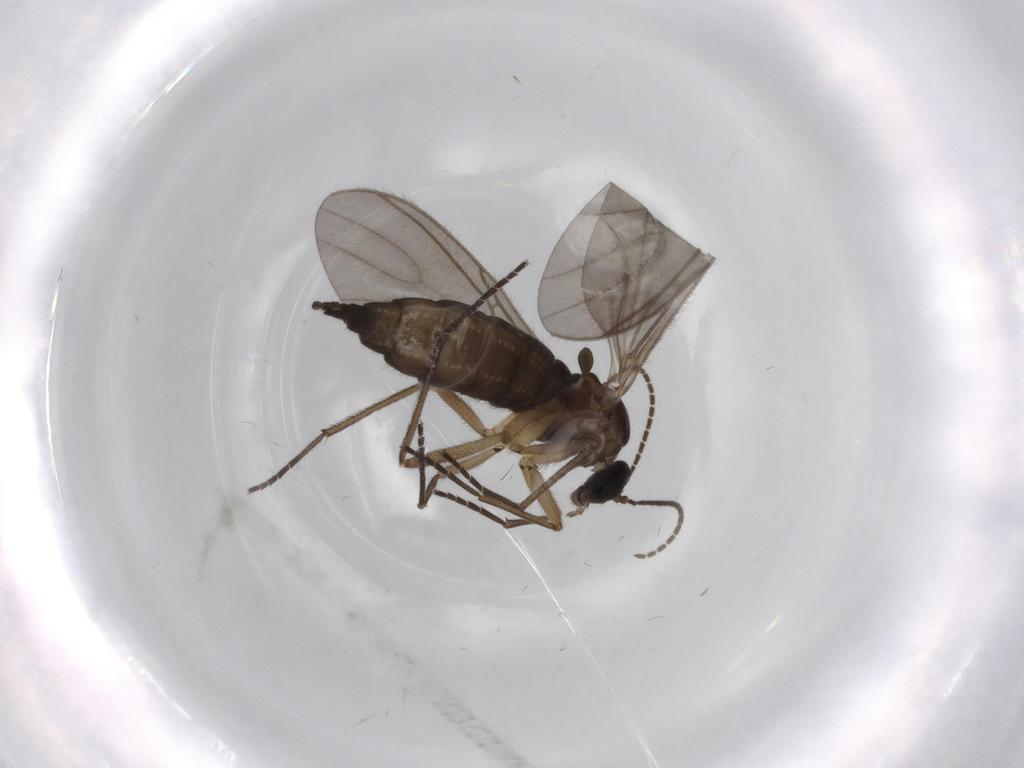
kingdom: Animalia
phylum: Arthropoda
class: Insecta
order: Diptera
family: Sciaridae
